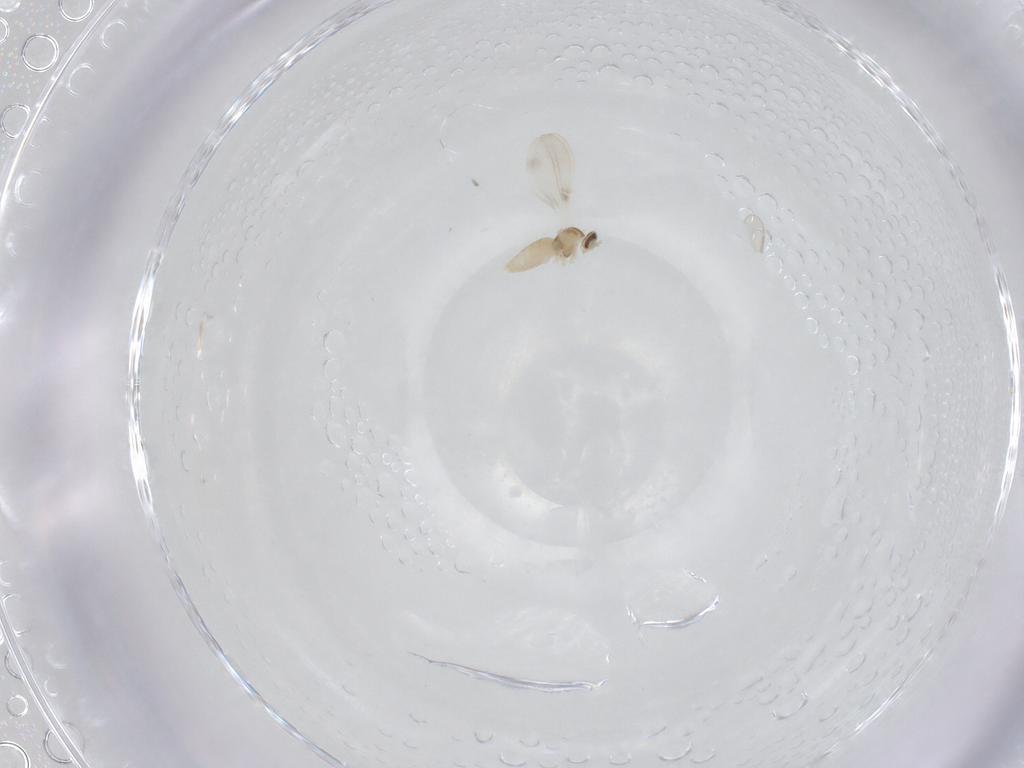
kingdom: Animalia
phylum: Arthropoda
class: Insecta
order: Diptera
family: Cecidomyiidae
